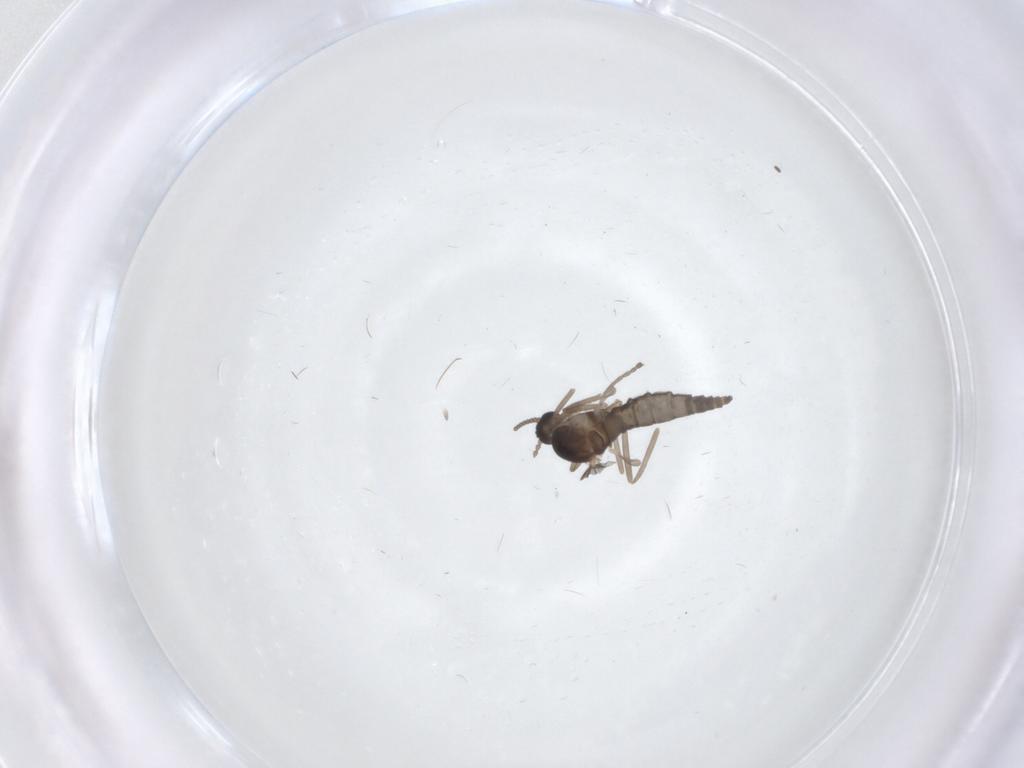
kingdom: Animalia
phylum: Arthropoda
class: Insecta
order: Diptera
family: Cecidomyiidae
